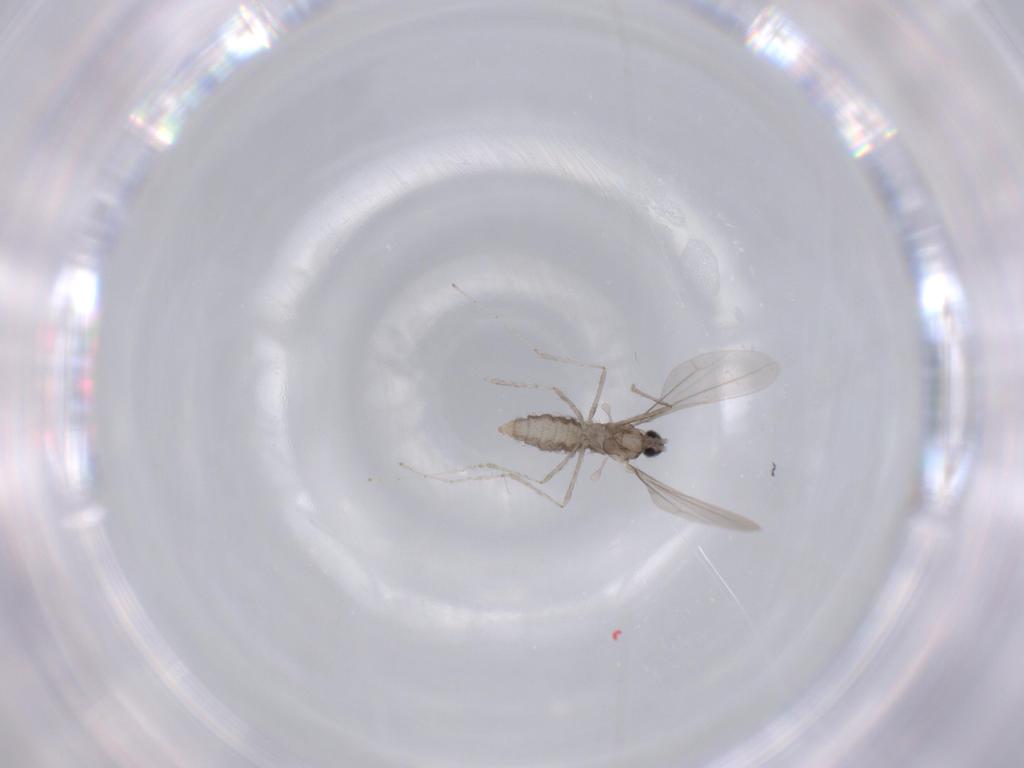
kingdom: Animalia
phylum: Arthropoda
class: Insecta
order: Diptera
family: Cecidomyiidae
